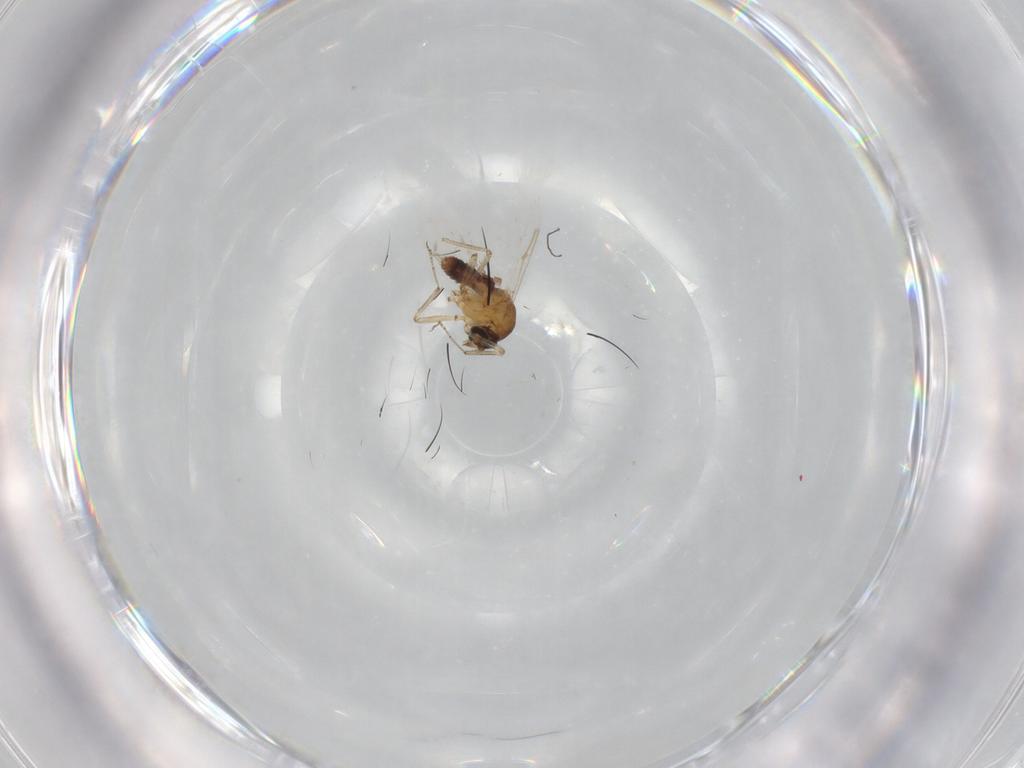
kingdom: Animalia
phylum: Arthropoda
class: Insecta
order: Diptera
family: Ceratopogonidae
